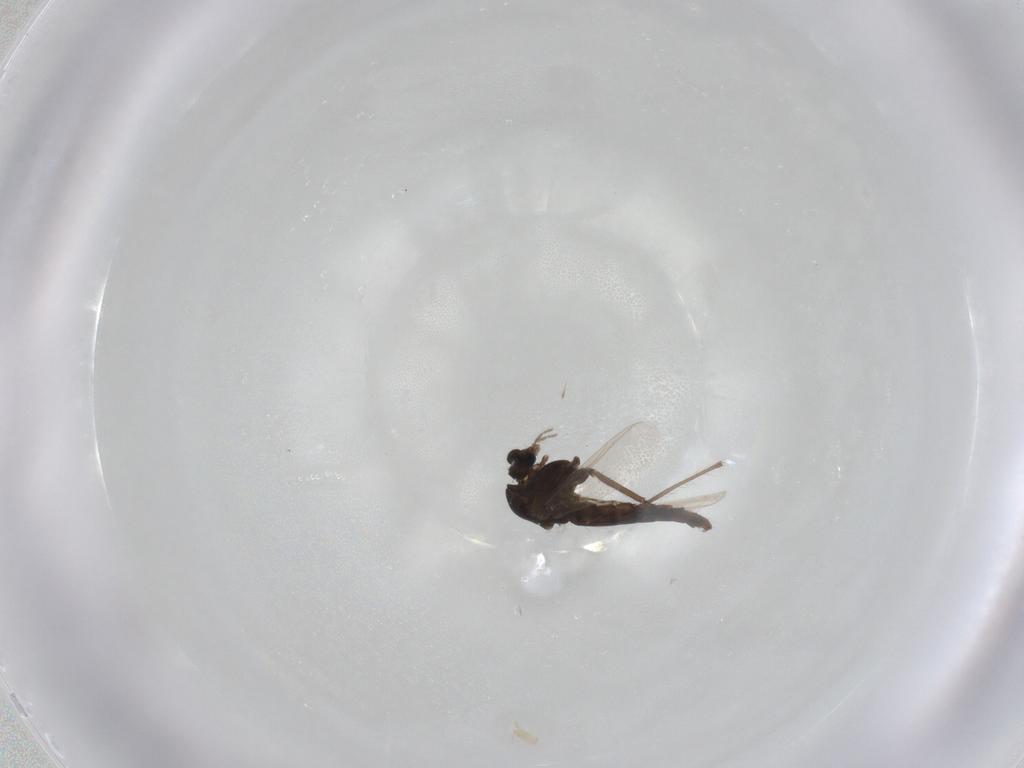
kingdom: Animalia
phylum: Arthropoda
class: Insecta
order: Diptera
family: Chironomidae
